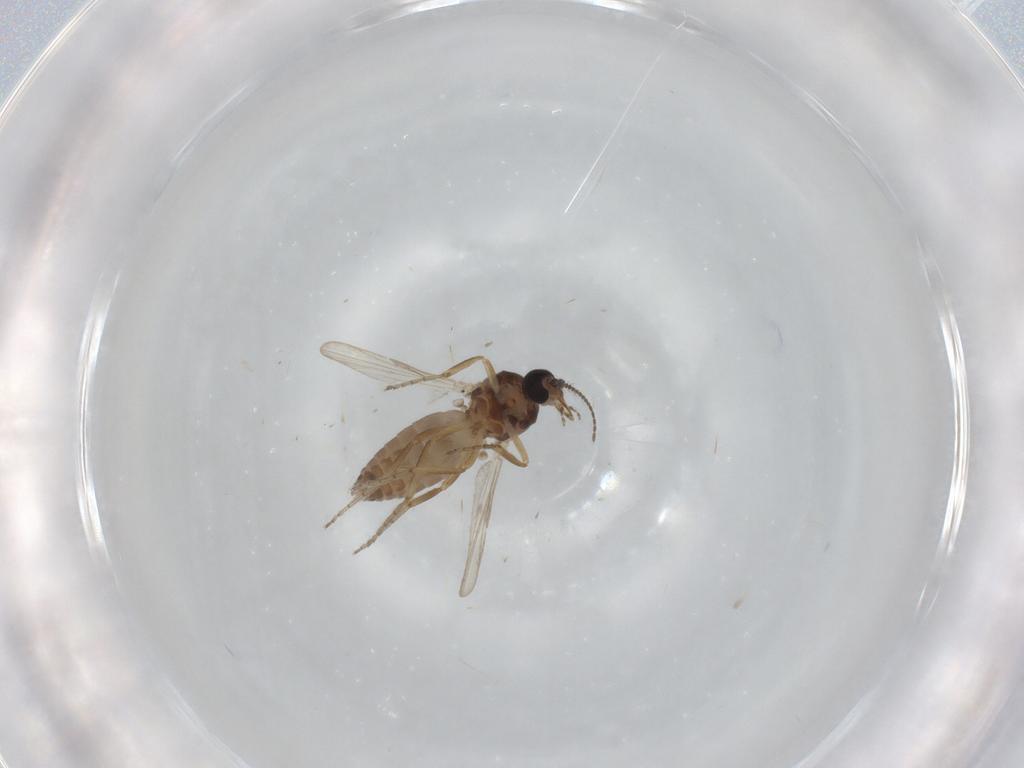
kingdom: Animalia
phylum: Arthropoda
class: Insecta
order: Diptera
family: Ceratopogonidae
